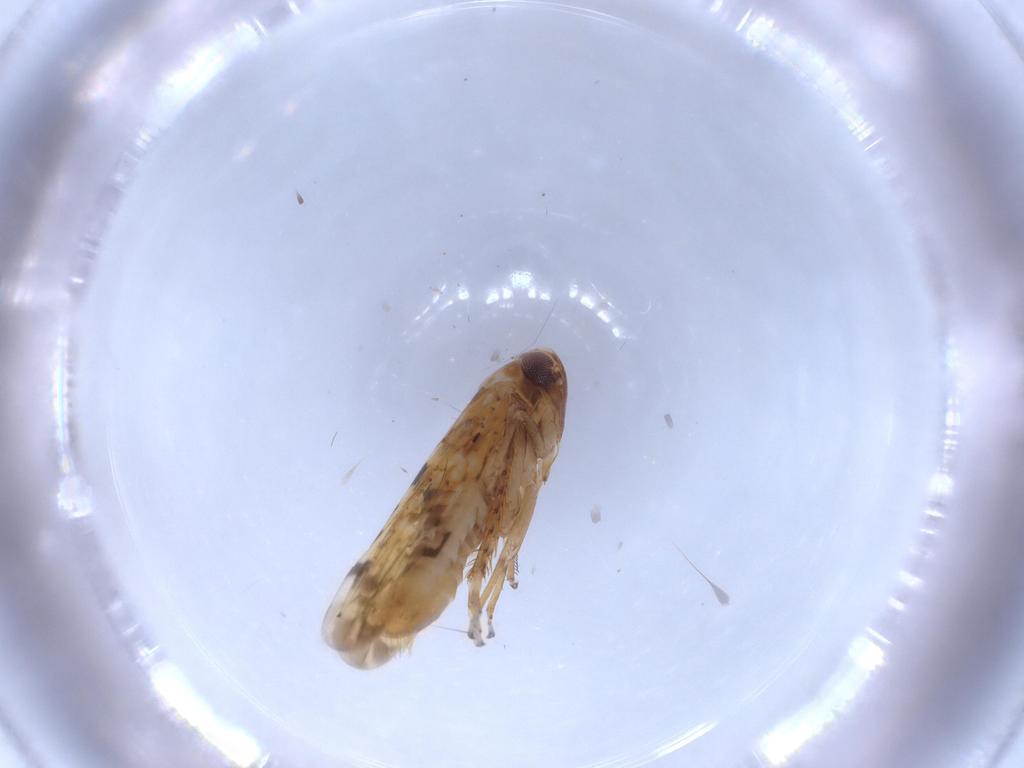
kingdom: Animalia
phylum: Arthropoda
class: Insecta
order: Hemiptera
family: Cicadellidae
